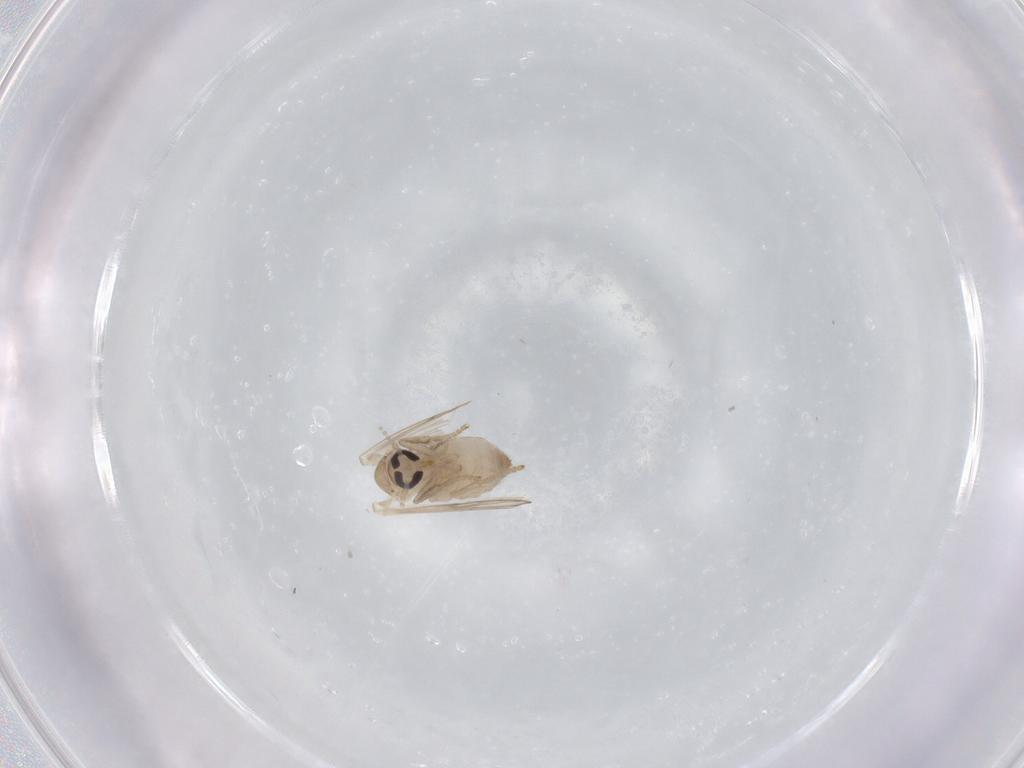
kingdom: Animalia
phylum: Arthropoda
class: Insecta
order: Diptera
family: Psychodidae
